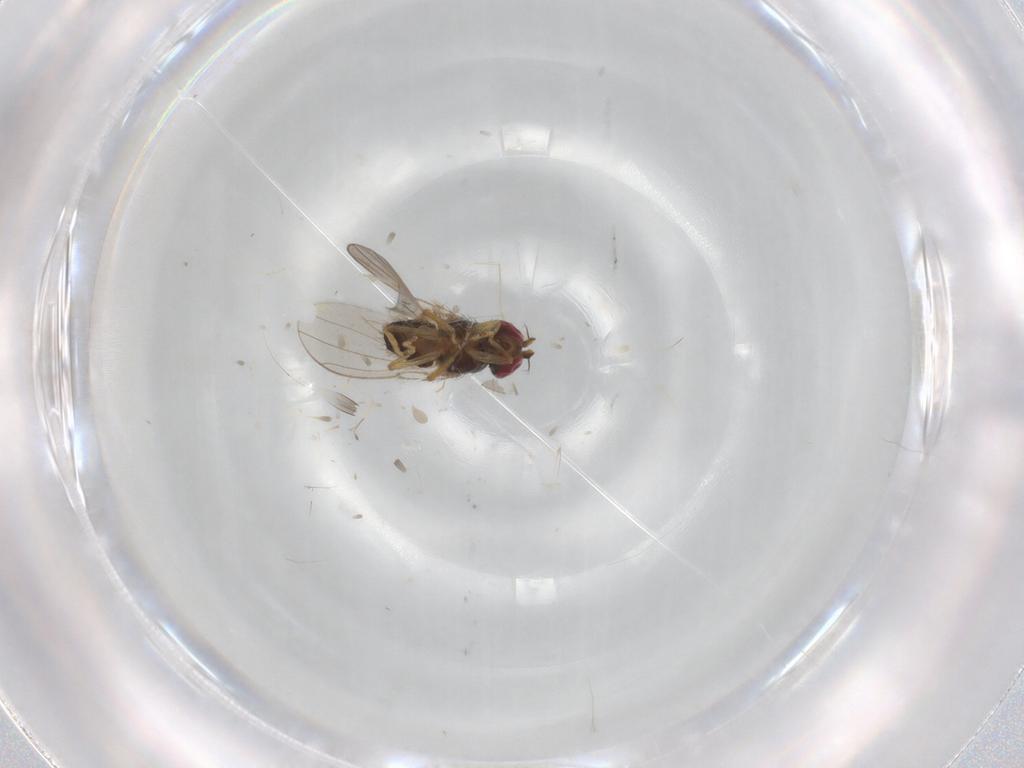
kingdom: Animalia
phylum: Arthropoda
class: Insecta
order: Diptera
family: Ephydridae
